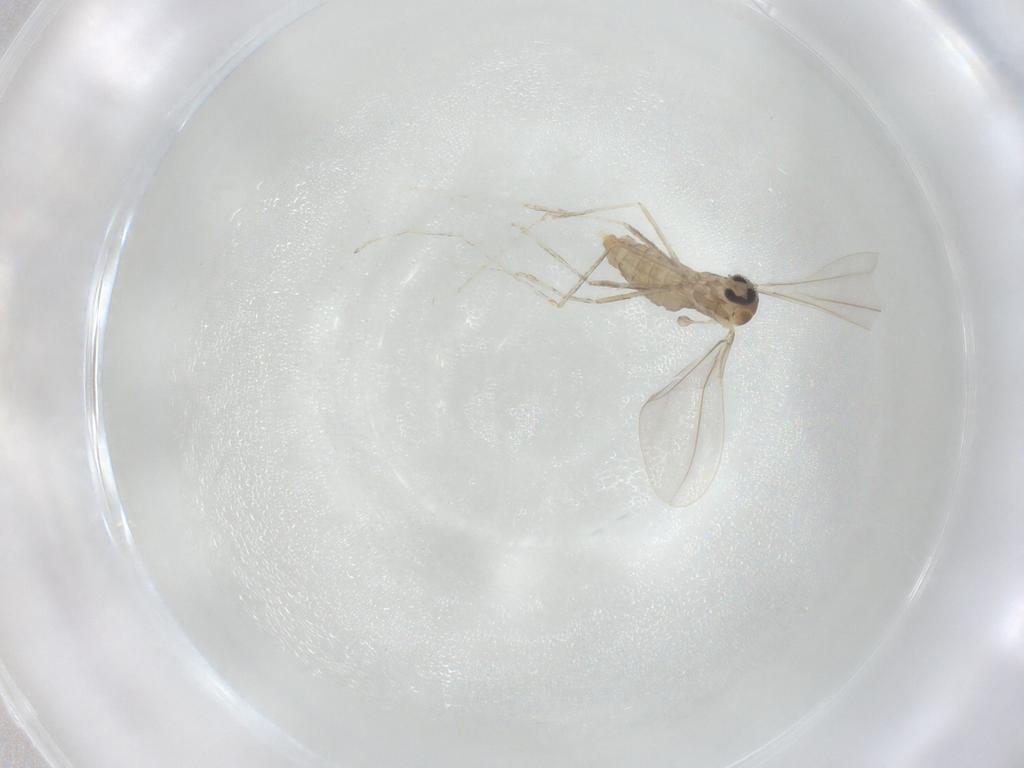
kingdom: Animalia
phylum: Arthropoda
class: Insecta
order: Diptera
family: Cecidomyiidae
